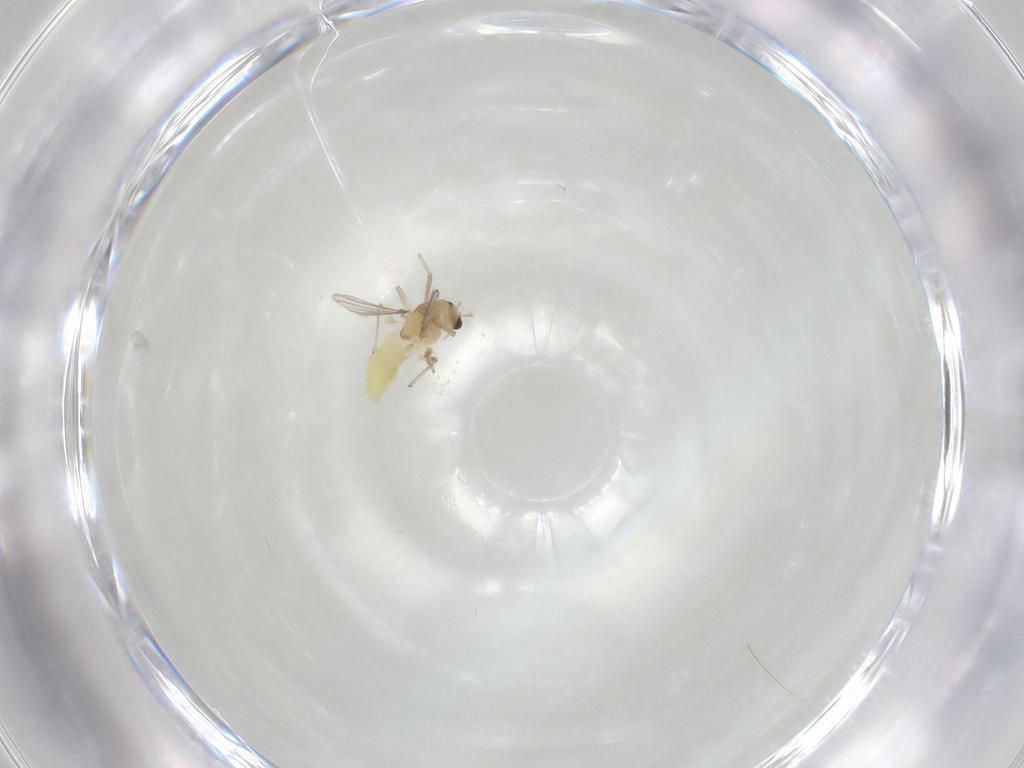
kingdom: Animalia
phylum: Arthropoda
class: Insecta
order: Diptera
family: Chironomidae
